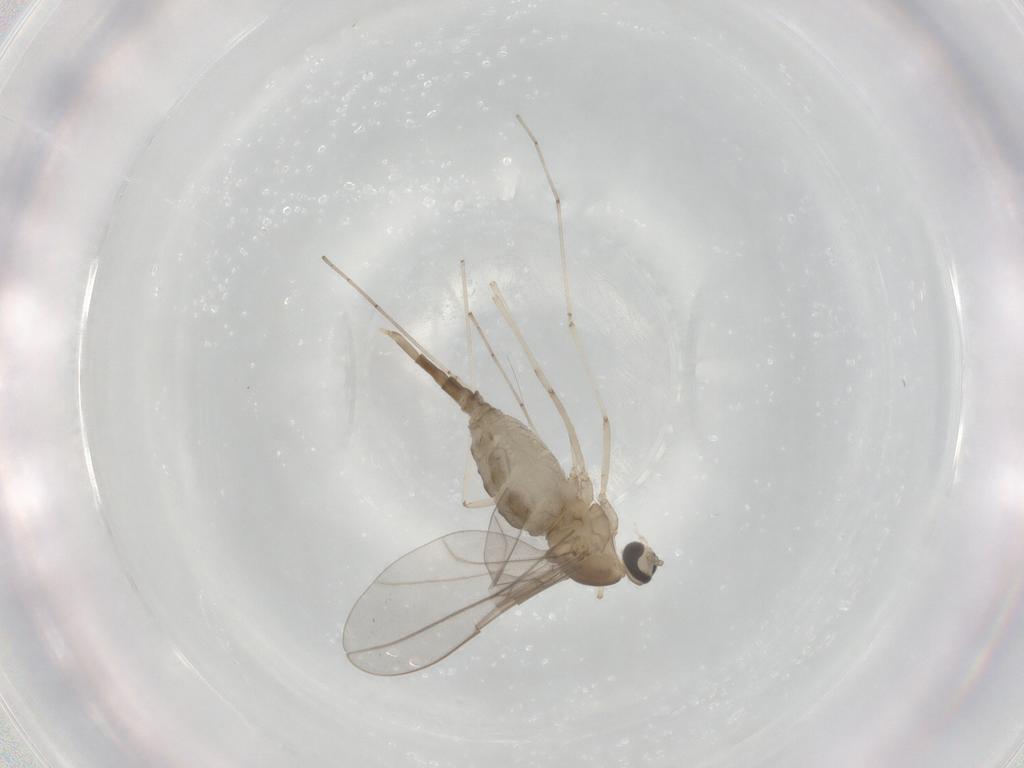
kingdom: Animalia
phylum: Arthropoda
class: Insecta
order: Diptera
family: Cecidomyiidae
